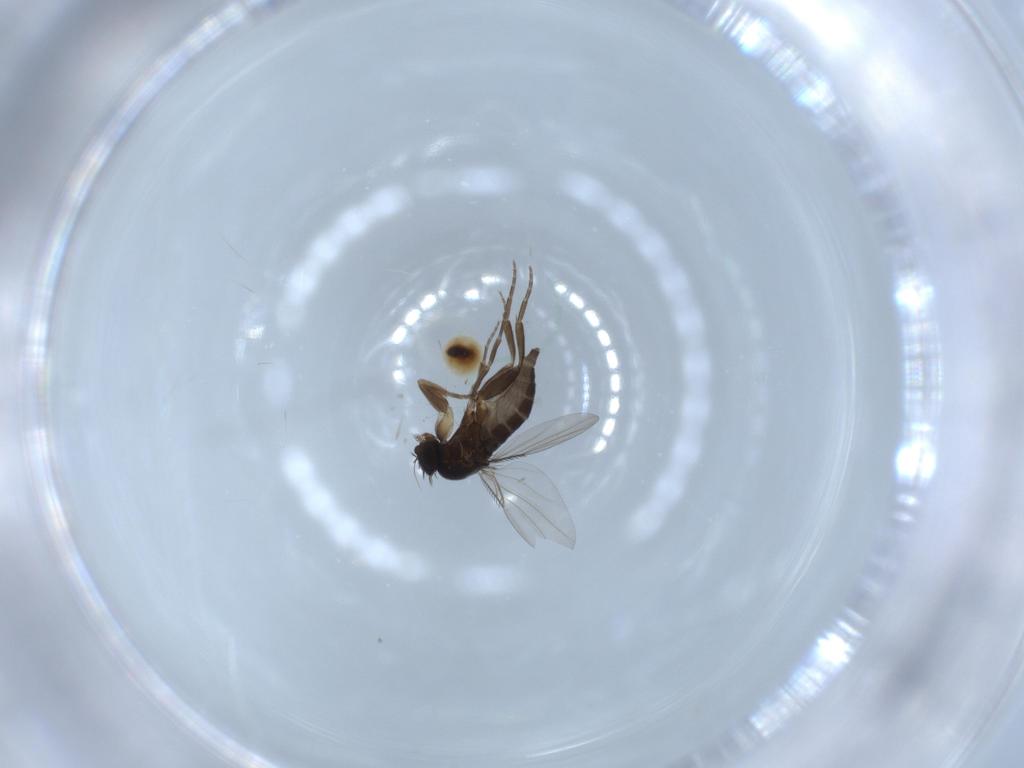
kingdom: Animalia
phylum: Arthropoda
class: Insecta
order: Diptera
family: Phoridae
